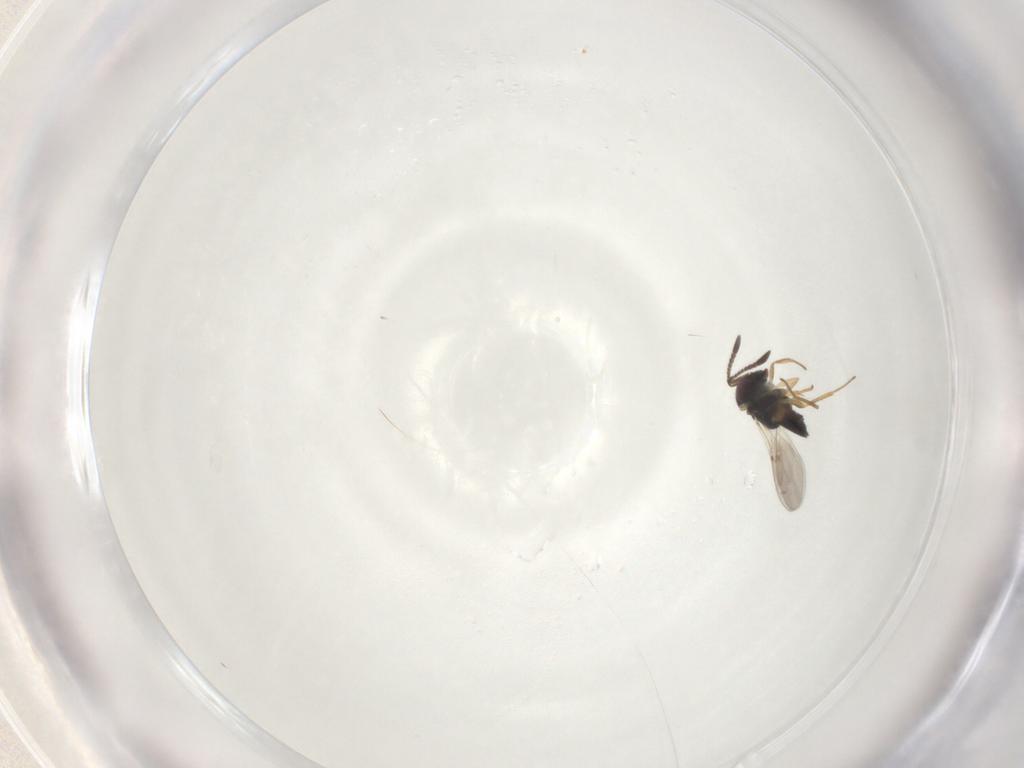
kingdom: Animalia
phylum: Arthropoda
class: Insecta
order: Hymenoptera
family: Encyrtidae
